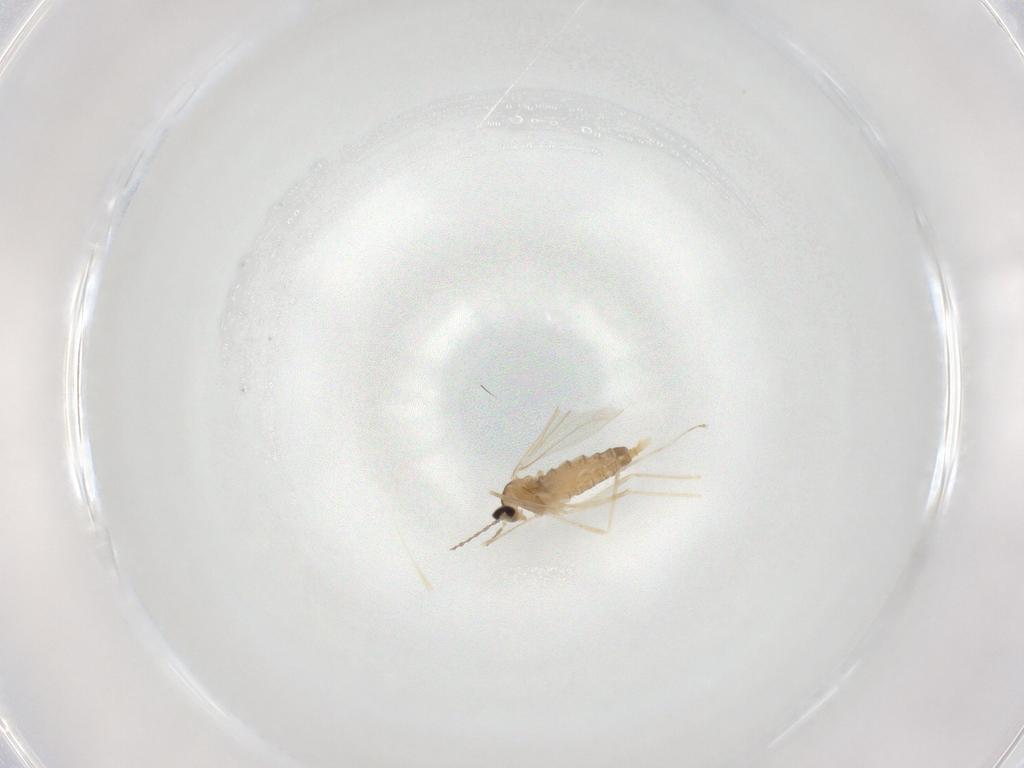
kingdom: Animalia
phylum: Arthropoda
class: Insecta
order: Diptera
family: Cecidomyiidae
